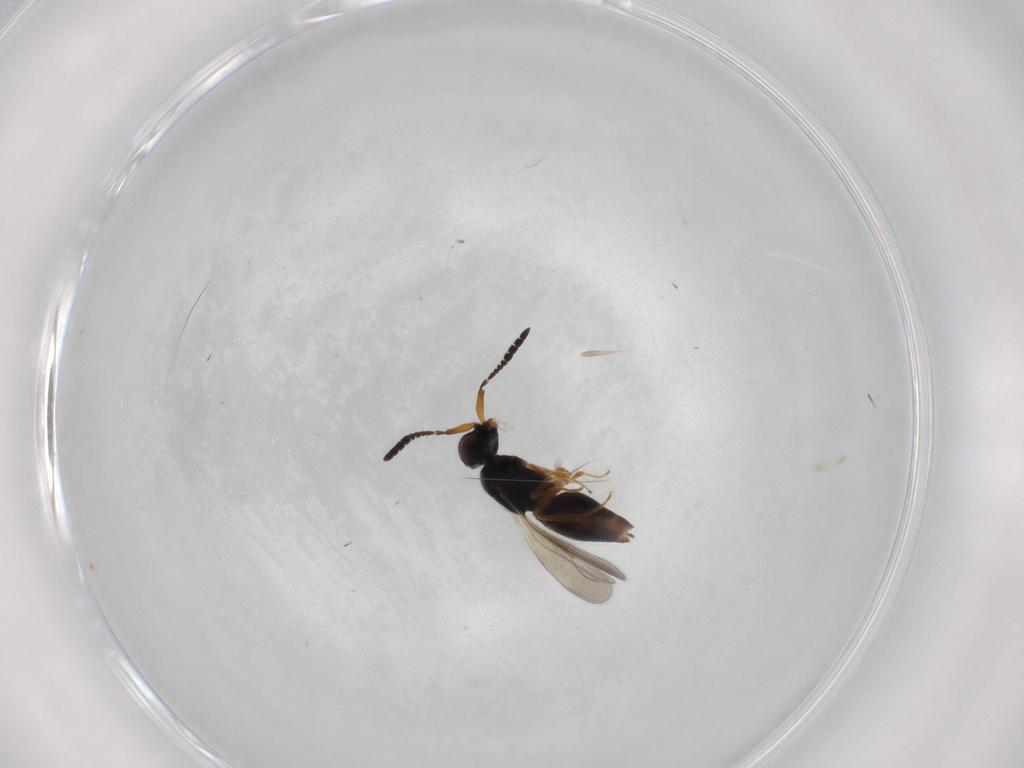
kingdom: Animalia
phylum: Arthropoda
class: Insecta
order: Hymenoptera
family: Ceraphronidae
